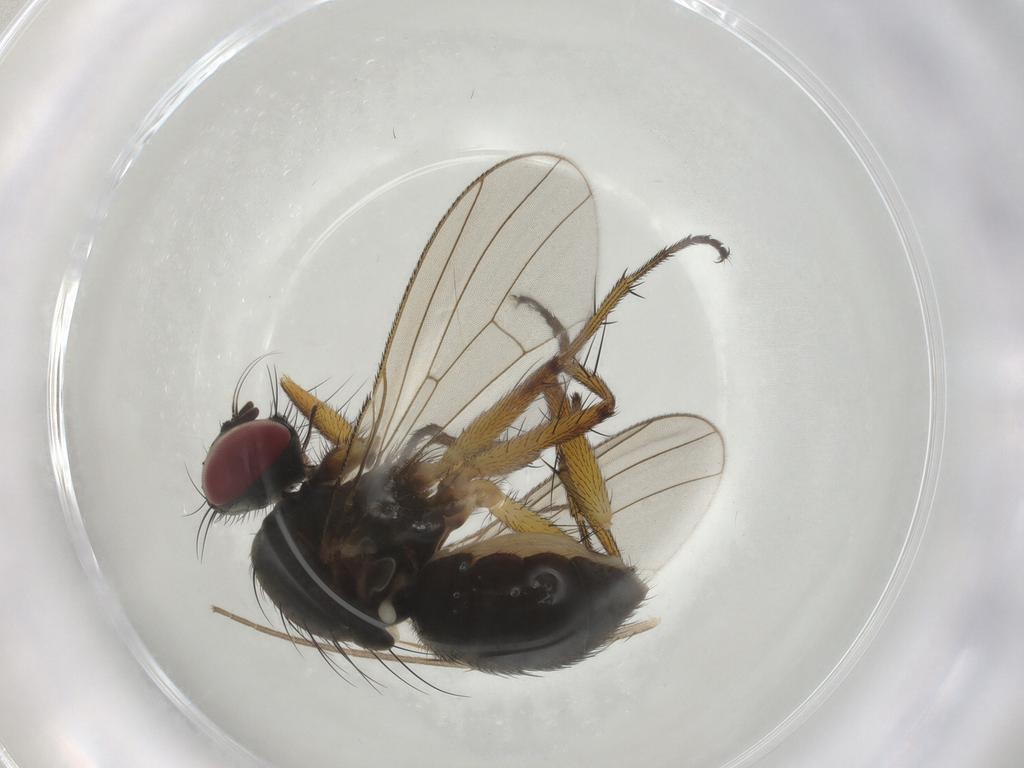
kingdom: Animalia
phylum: Arthropoda
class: Insecta
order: Diptera
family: Muscidae
